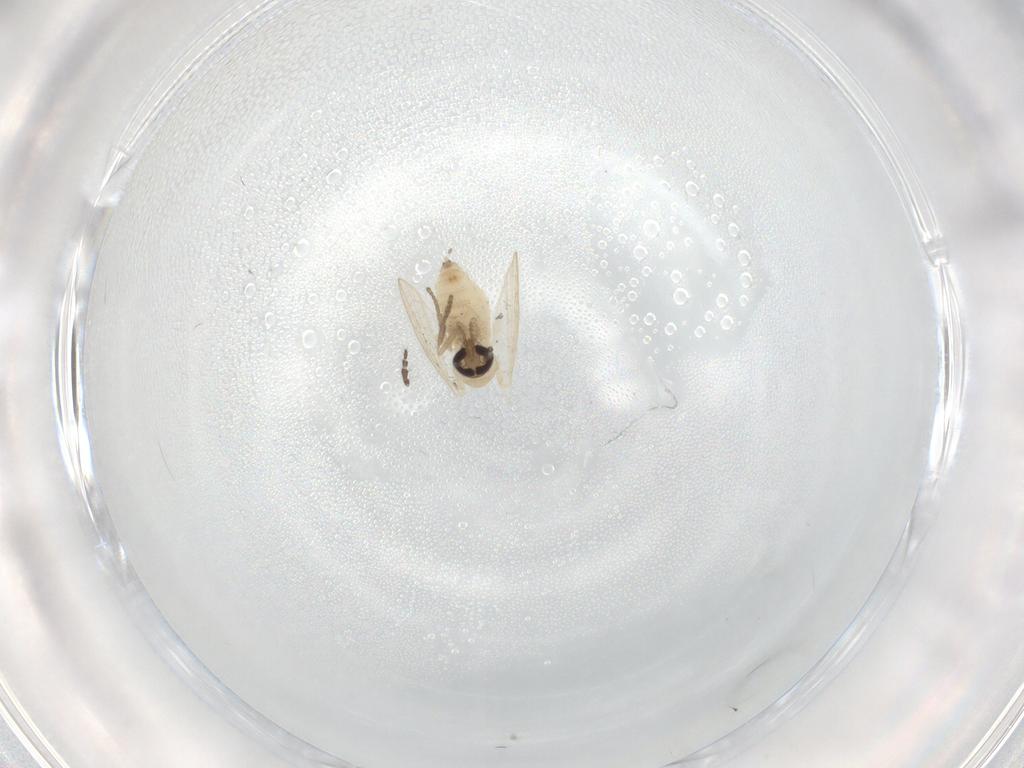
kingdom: Animalia
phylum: Arthropoda
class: Insecta
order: Diptera
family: Psychodidae
